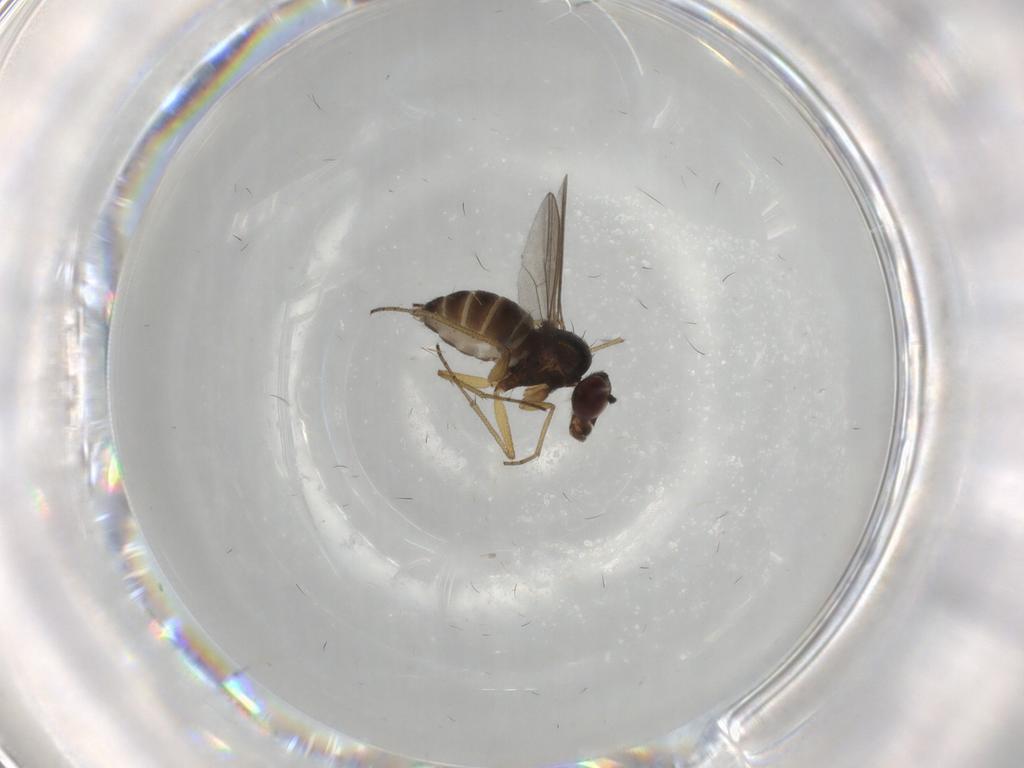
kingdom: Animalia
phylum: Arthropoda
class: Insecta
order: Diptera
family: Dolichopodidae
